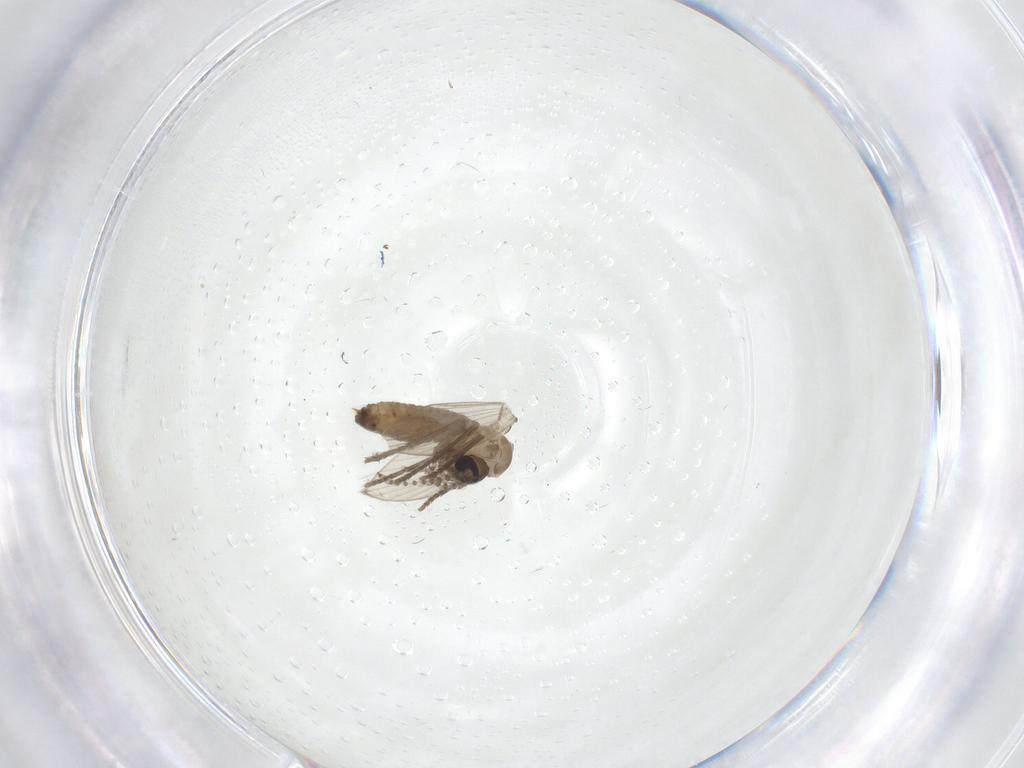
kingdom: Animalia
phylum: Arthropoda
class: Insecta
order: Diptera
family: Psychodidae
